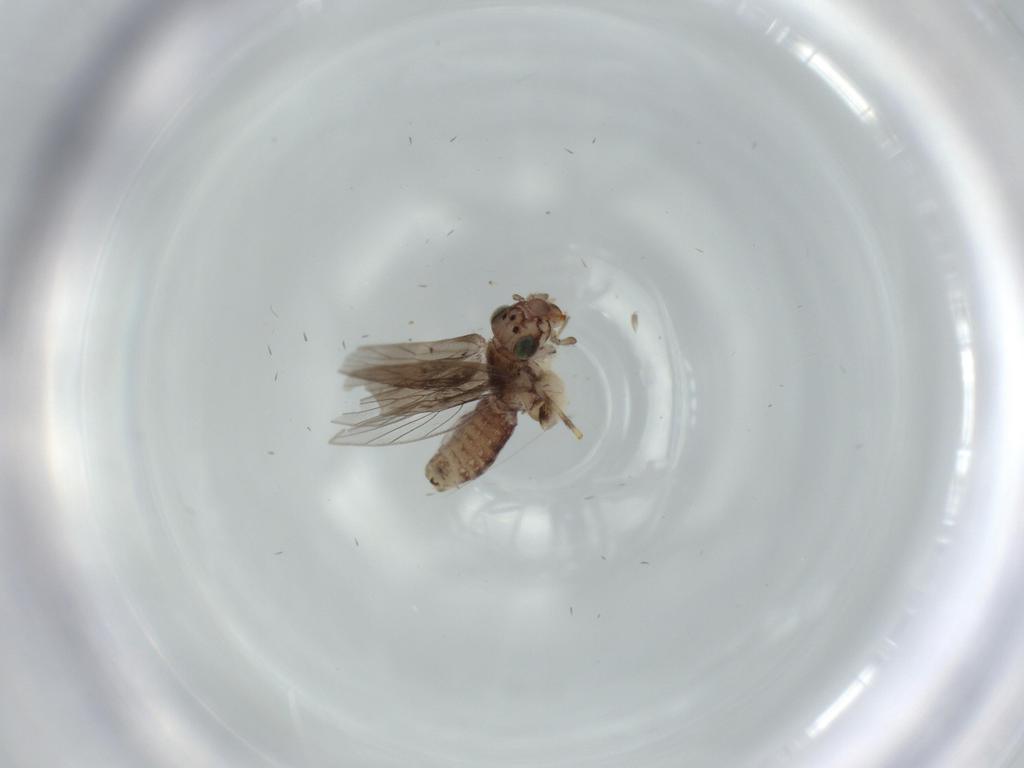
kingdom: Animalia
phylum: Arthropoda
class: Insecta
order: Psocodea
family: Lepidopsocidae
